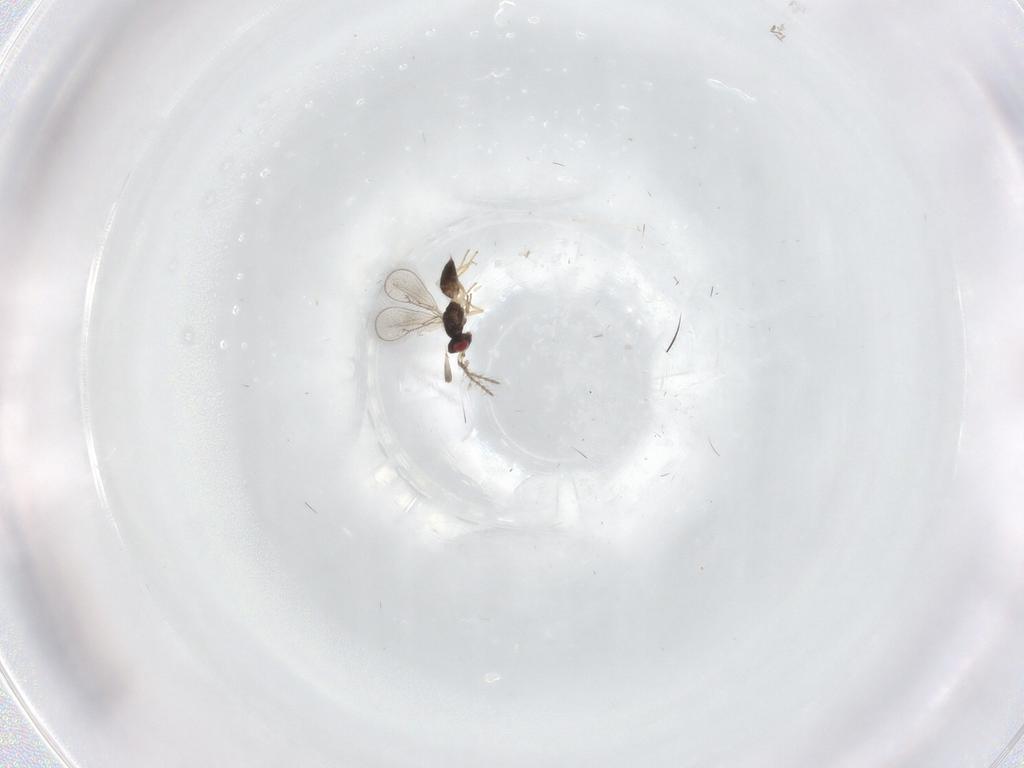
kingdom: Animalia
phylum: Arthropoda
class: Insecta
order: Hymenoptera
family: Eulophidae
